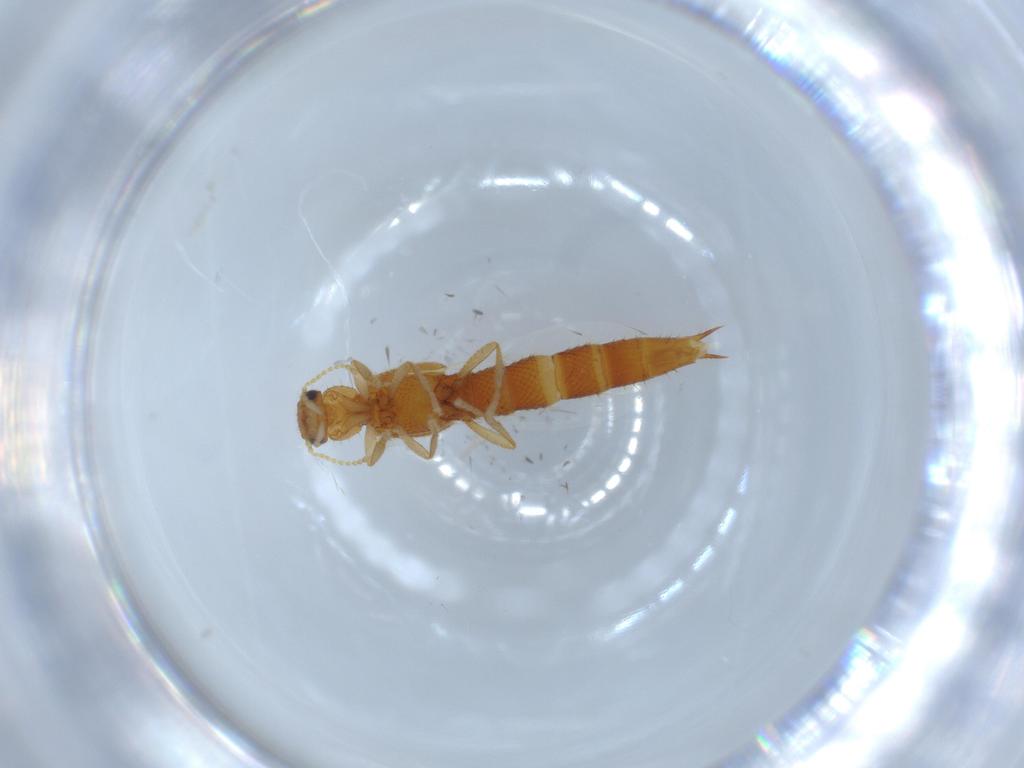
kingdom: Animalia
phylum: Arthropoda
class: Insecta
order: Coleoptera
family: Staphylinidae
